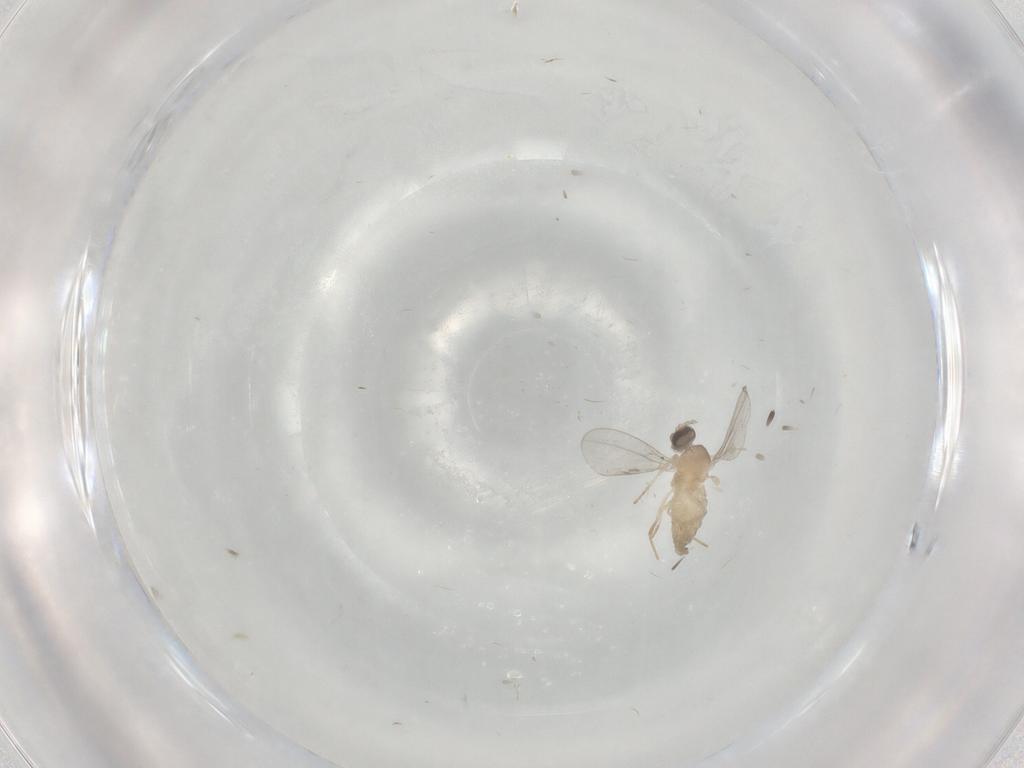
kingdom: Animalia
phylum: Arthropoda
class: Insecta
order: Diptera
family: Cecidomyiidae
